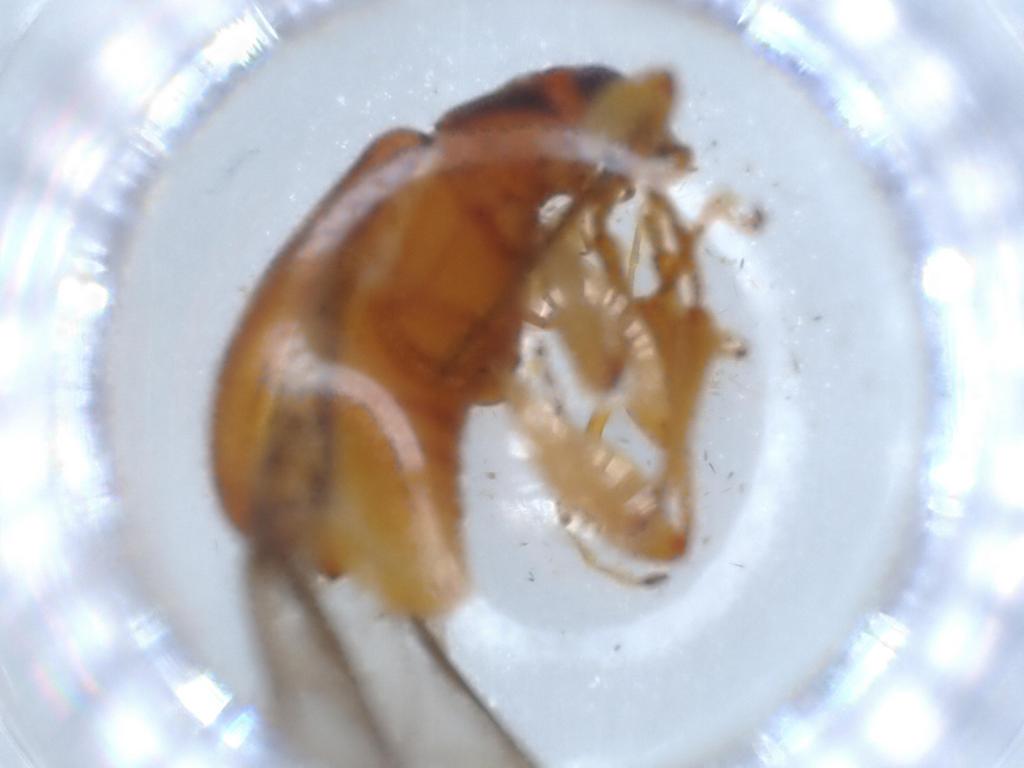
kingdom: Animalia
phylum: Arthropoda
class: Insecta
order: Coleoptera
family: Chrysomelidae
